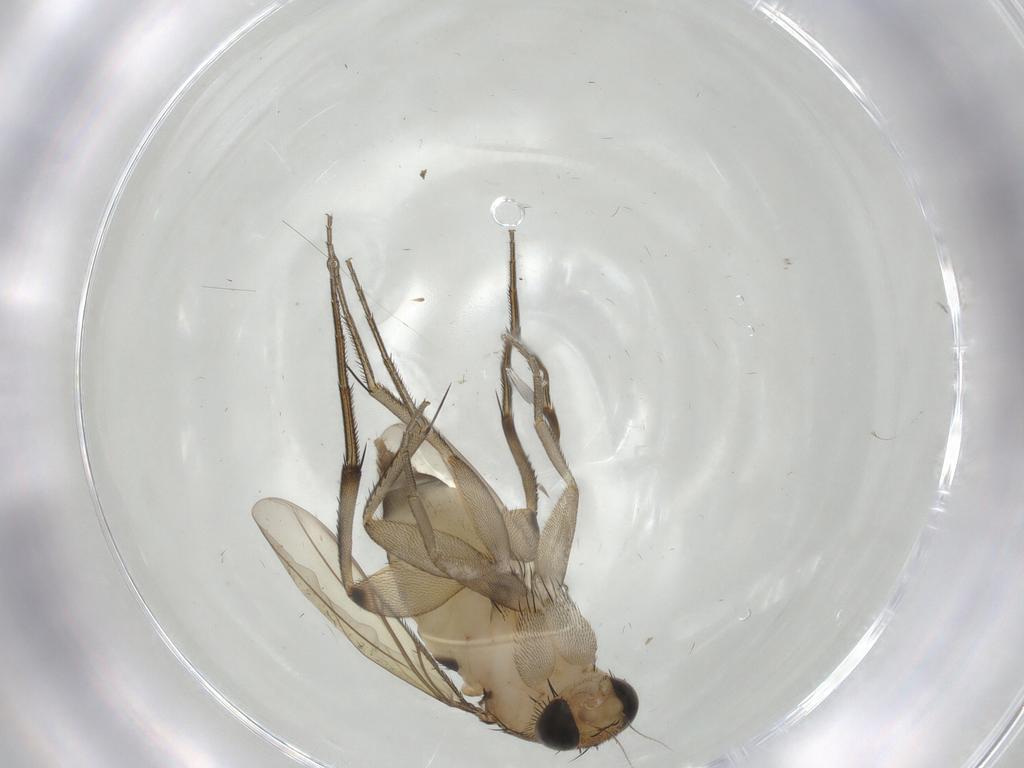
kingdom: Animalia
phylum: Arthropoda
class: Insecta
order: Diptera
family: Phoridae
